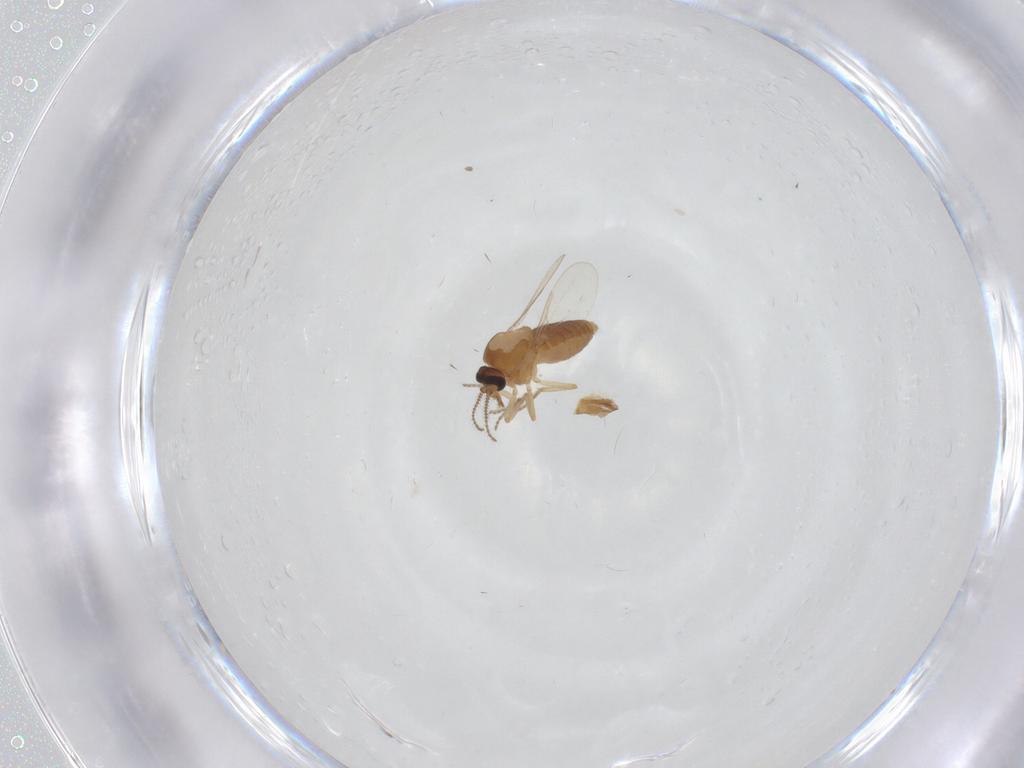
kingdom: Animalia
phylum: Arthropoda
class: Insecta
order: Diptera
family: Ceratopogonidae
